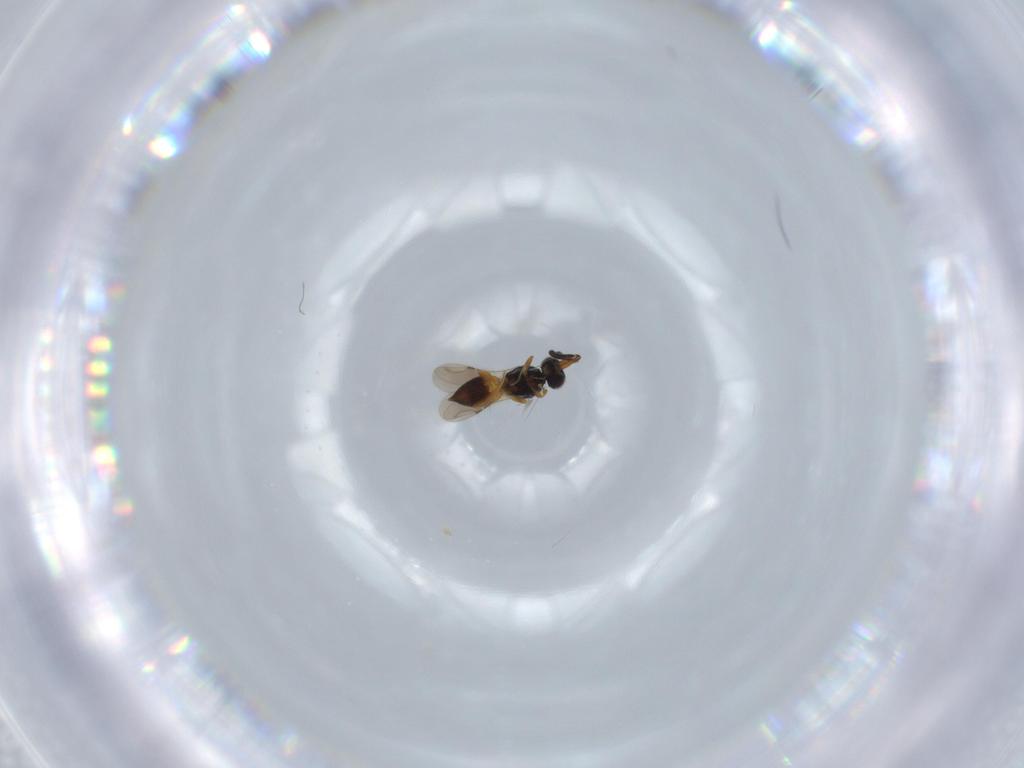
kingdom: Animalia
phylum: Arthropoda
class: Insecta
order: Hymenoptera
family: Trichogrammatidae
